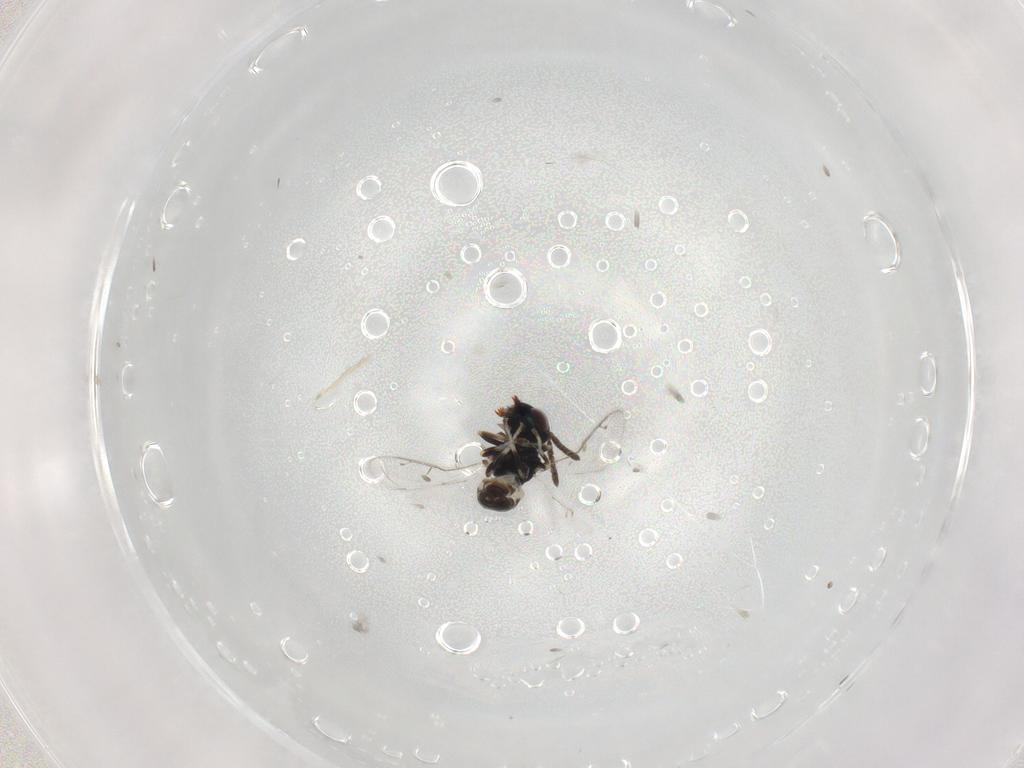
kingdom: Animalia
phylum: Arthropoda
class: Insecta
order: Hymenoptera
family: Pteromalidae
